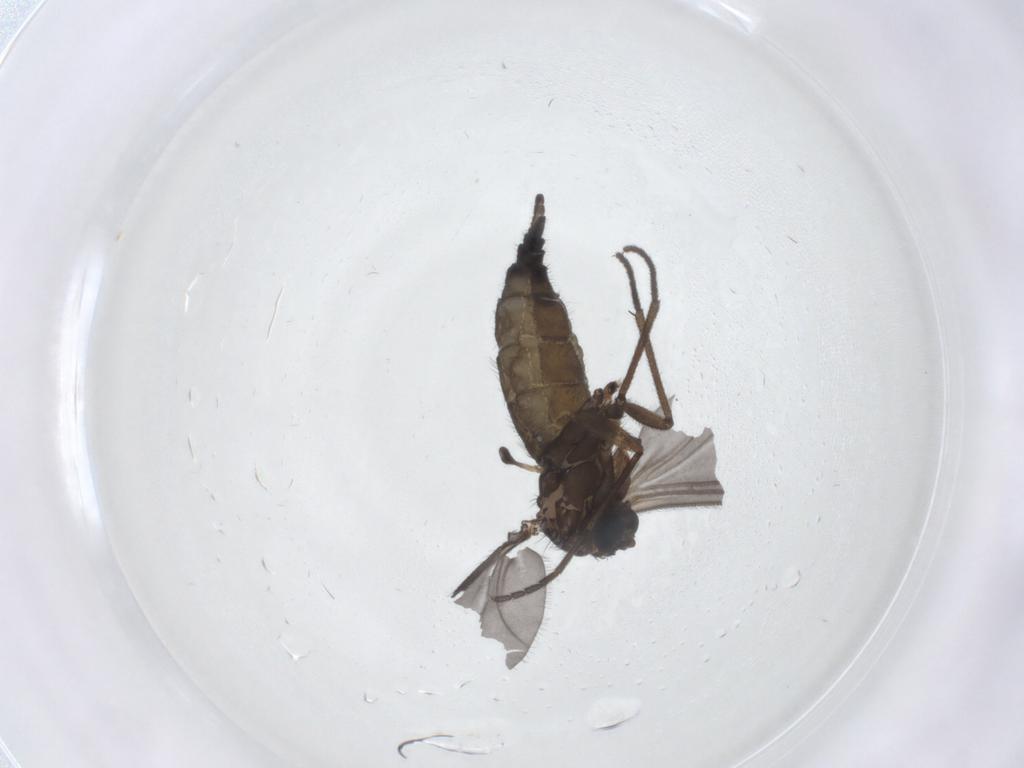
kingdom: Animalia
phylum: Arthropoda
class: Insecta
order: Diptera
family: Sciaridae
